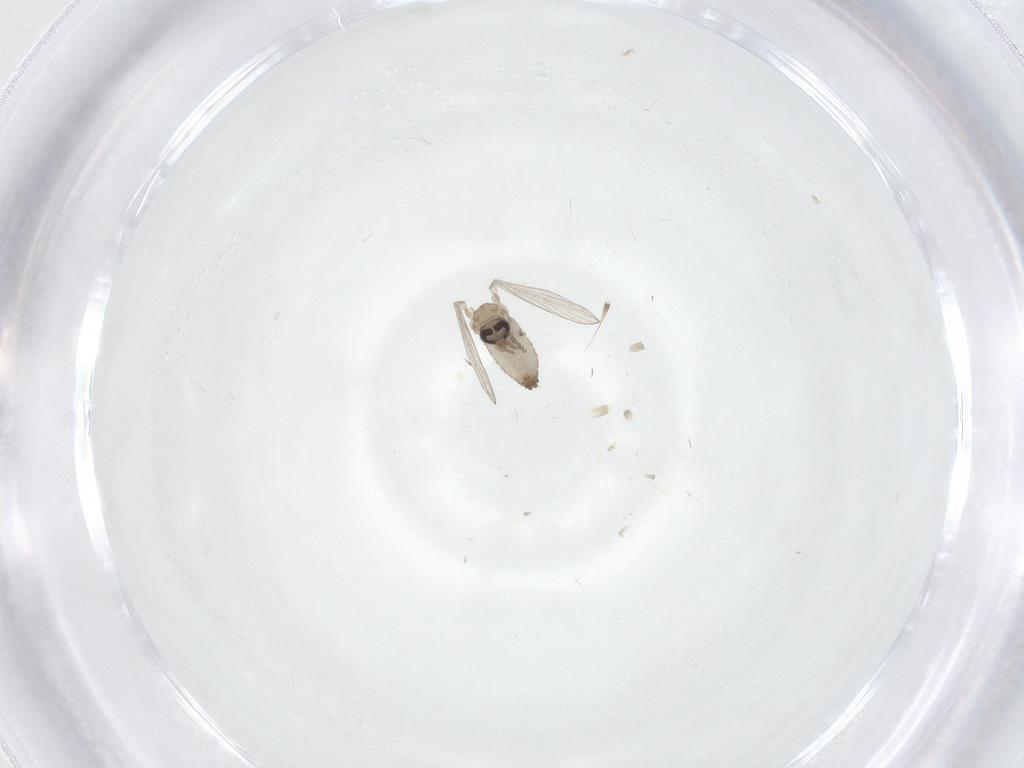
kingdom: Animalia
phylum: Arthropoda
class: Insecta
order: Diptera
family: Psychodidae
